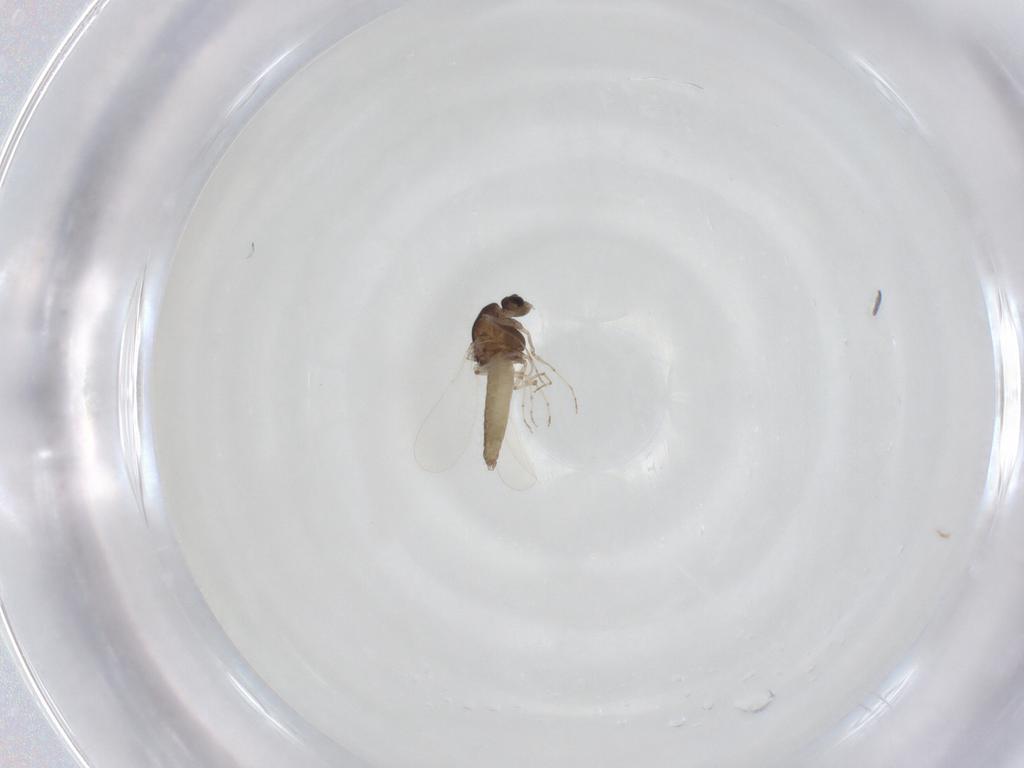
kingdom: Animalia
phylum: Arthropoda
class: Insecta
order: Diptera
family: Chironomidae
